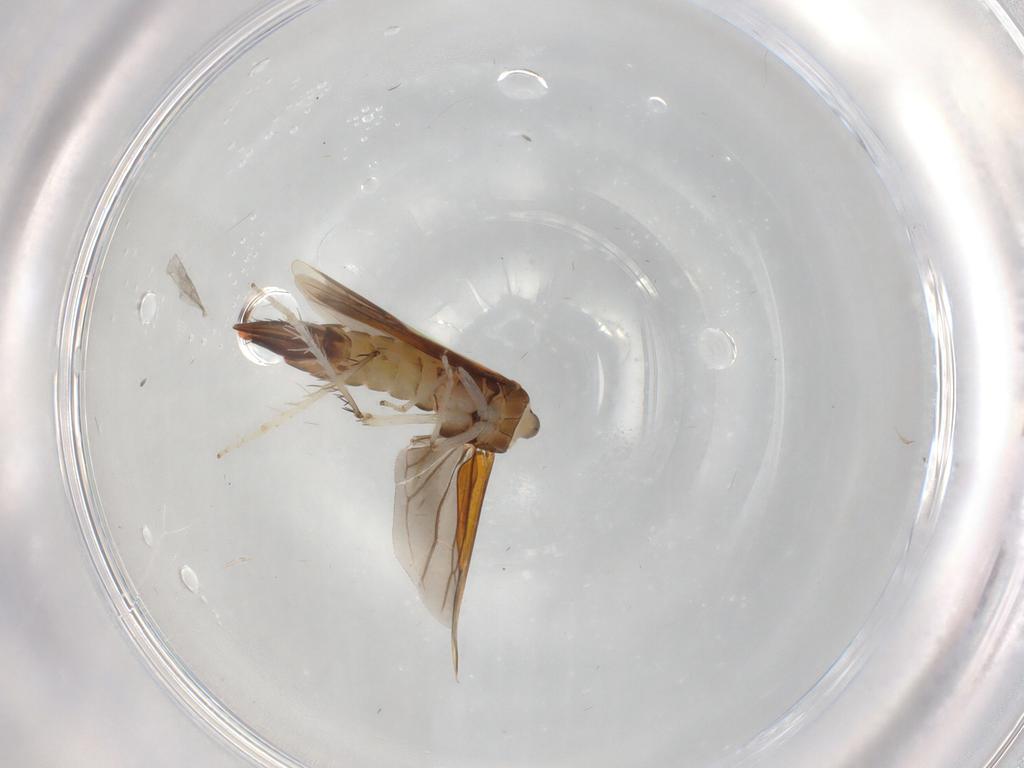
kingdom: Animalia
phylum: Arthropoda
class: Insecta
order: Hemiptera
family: Cicadellidae
